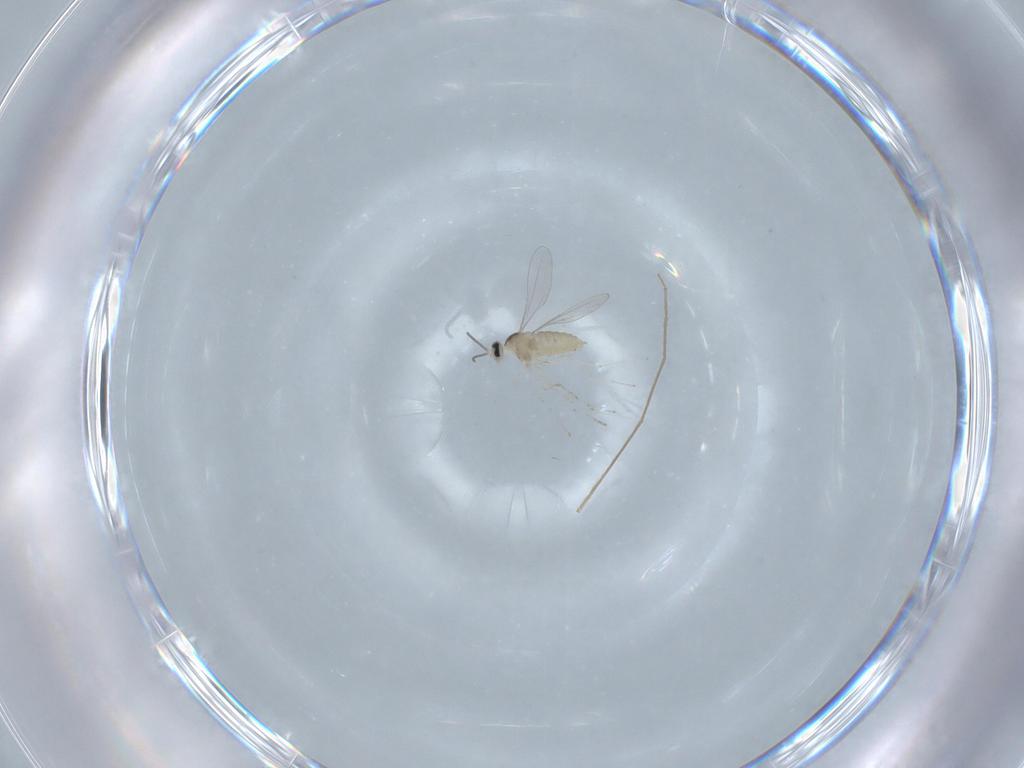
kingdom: Animalia
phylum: Arthropoda
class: Insecta
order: Diptera
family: Cecidomyiidae
